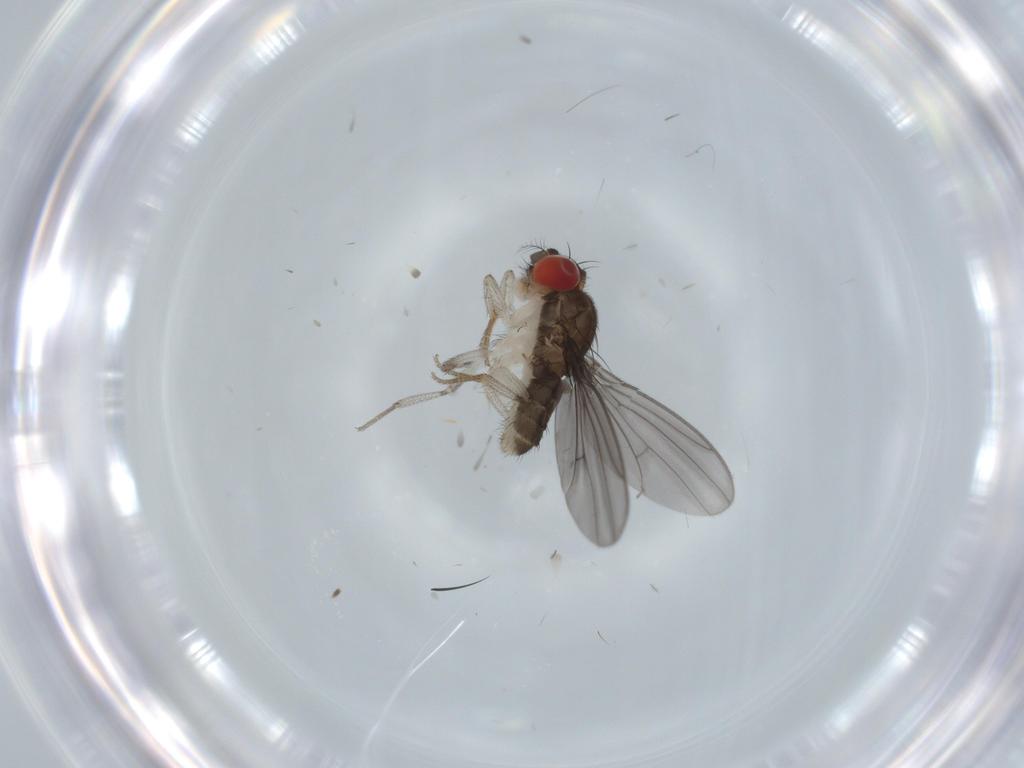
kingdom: Animalia
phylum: Arthropoda
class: Insecta
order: Diptera
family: Drosophilidae
